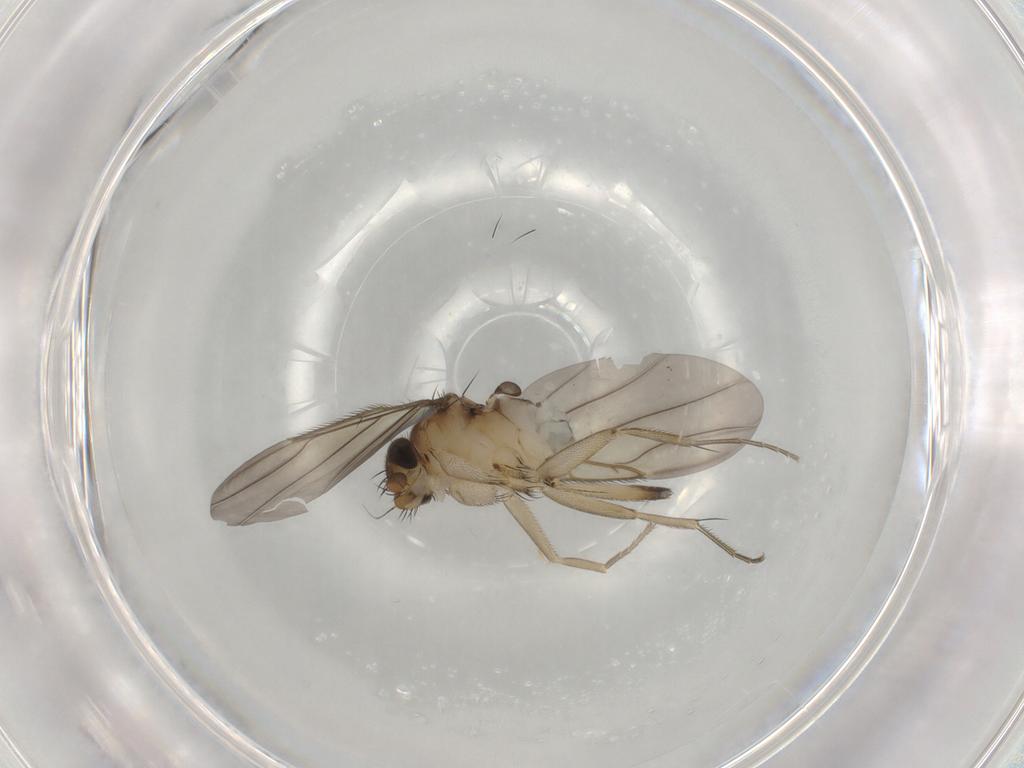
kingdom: Animalia
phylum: Arthropoda
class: Insecta
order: Diptera
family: Phoridae
